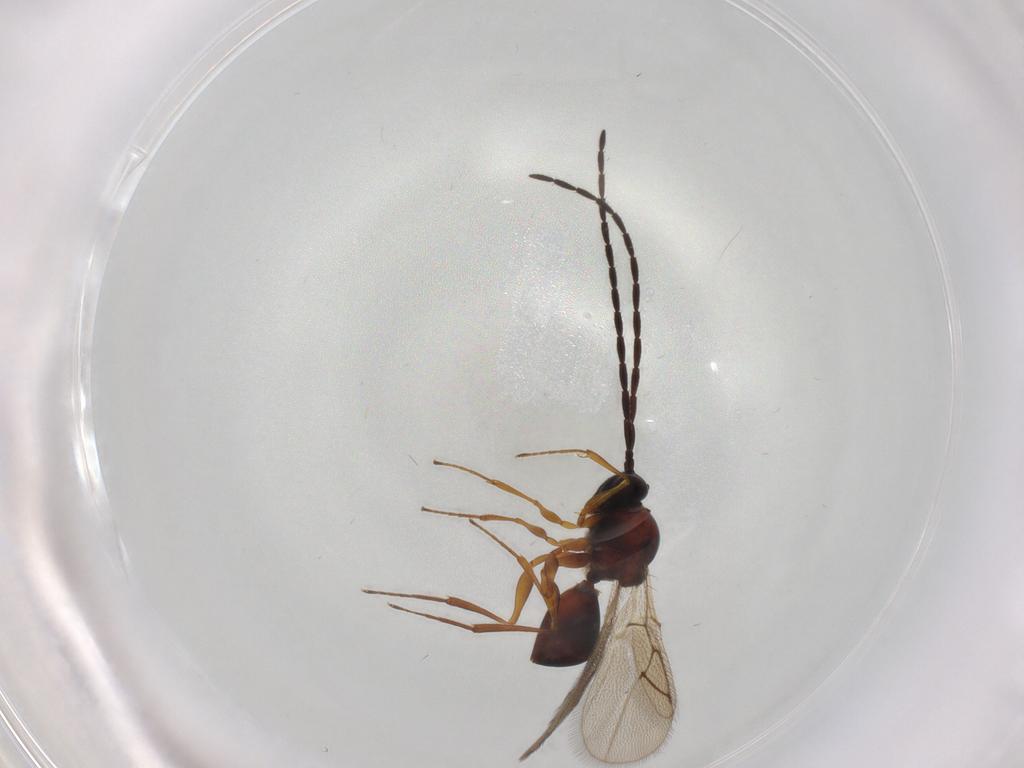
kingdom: Animalia
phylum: Arthropoda
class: Insecta
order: Hymenoptera
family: Figitidae
